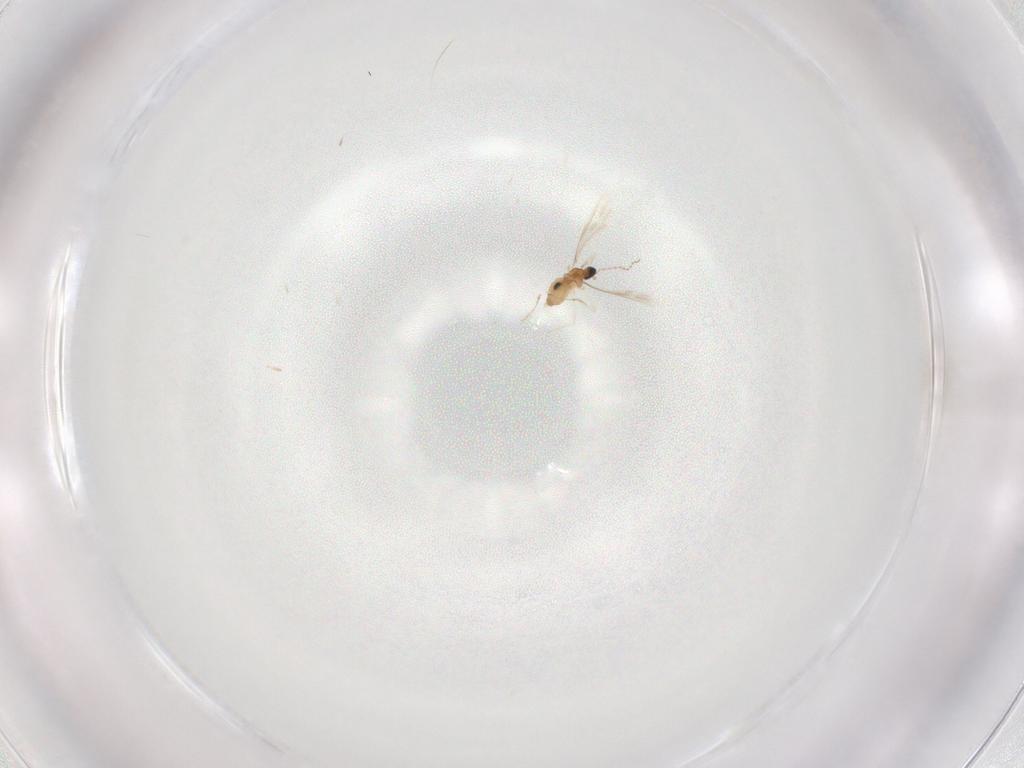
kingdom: Animalia
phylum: Arthropoda
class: Insecta
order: Diptera
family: Cecidomyiidae
